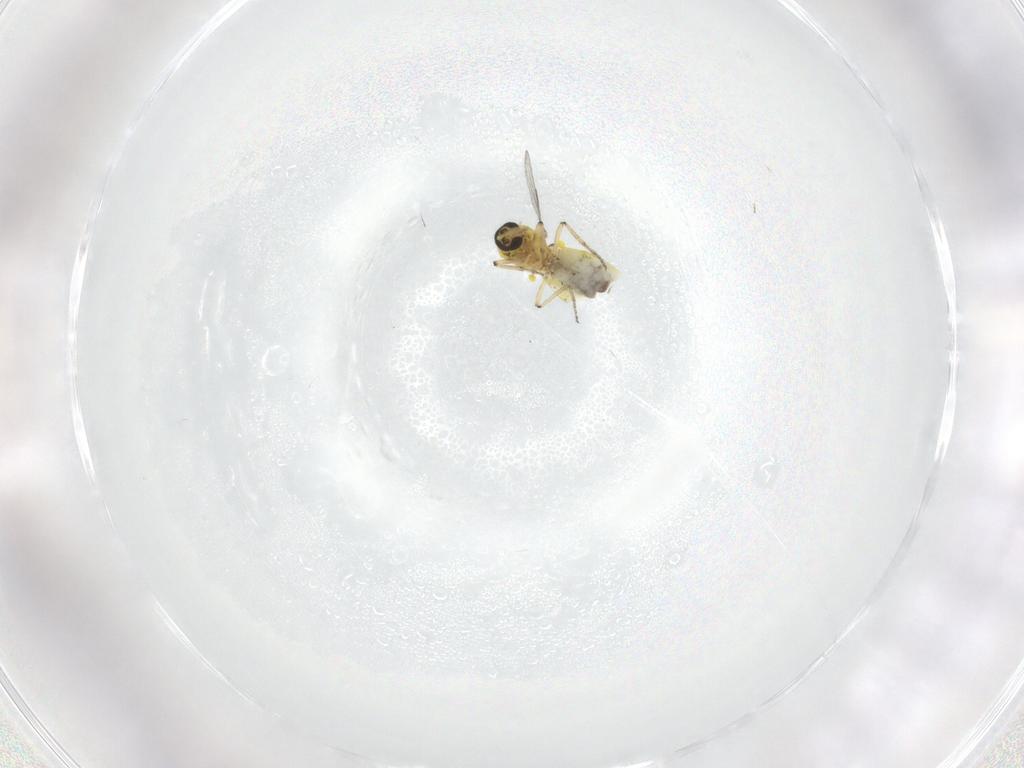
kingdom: Animalia
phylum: Arthropoda
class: Insecta
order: Diptera
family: Ceratopogonidae
